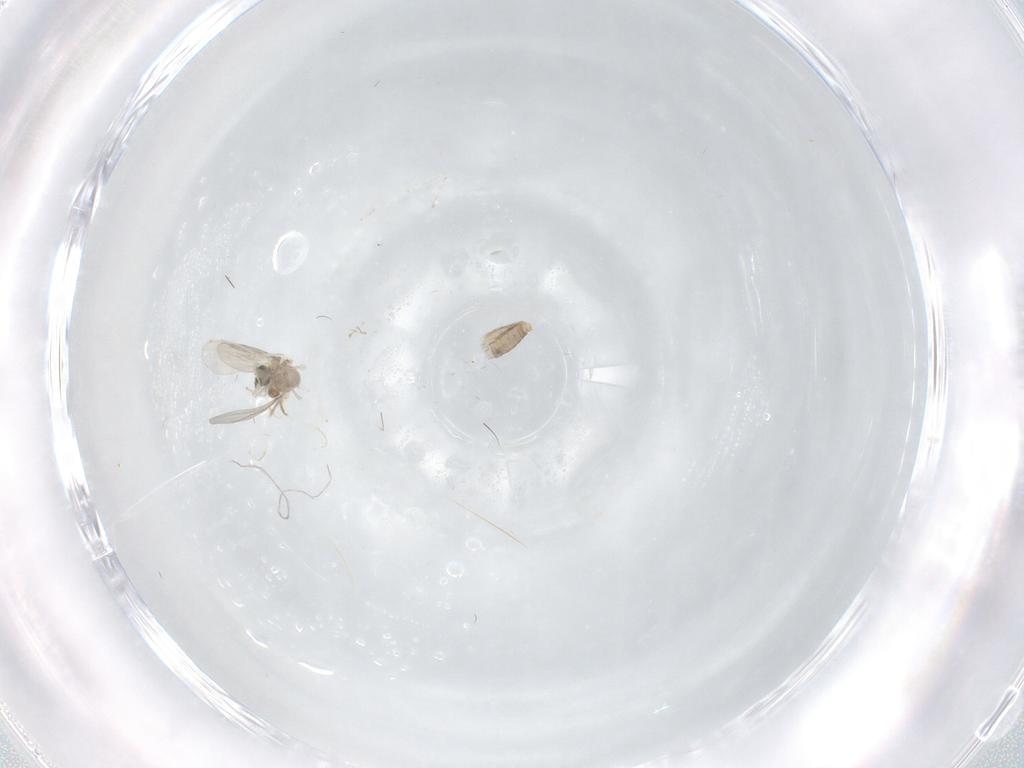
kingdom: Animalia
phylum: Arthropoda
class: Insecta
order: Diptera
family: Cecidomyiidae
